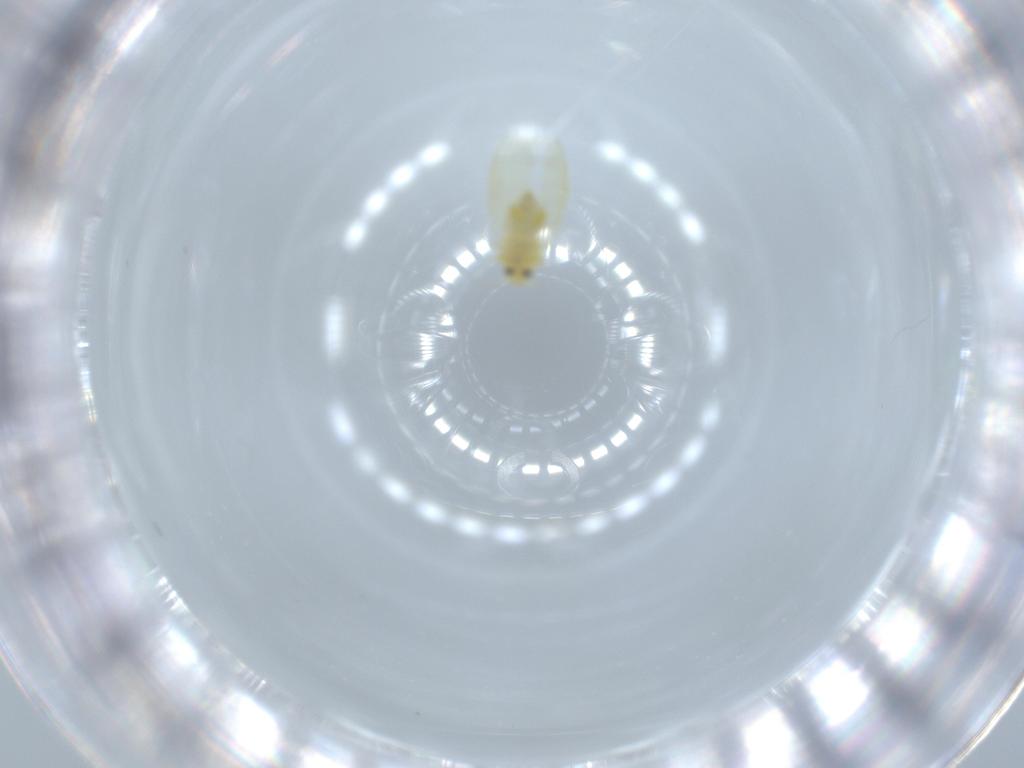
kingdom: Animalia
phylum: Arthropoda
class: Insecta
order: Hemiptera
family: Aleyrodidae
